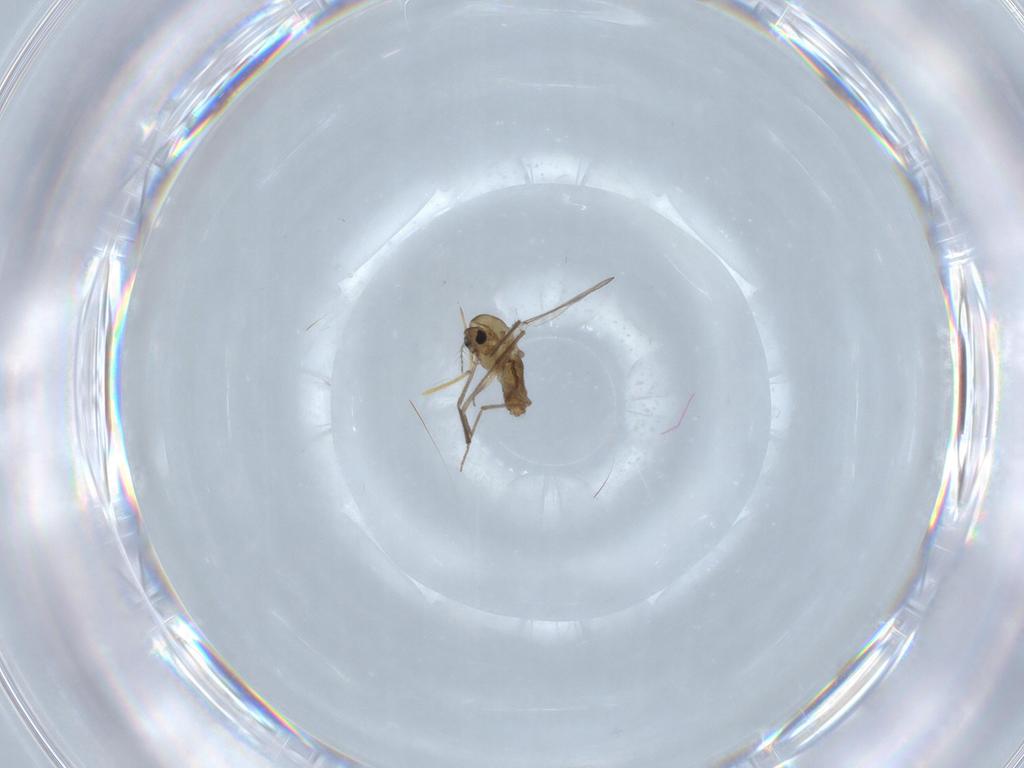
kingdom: Animalia
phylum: Arthropoda
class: Insecta
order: Diptera
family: Chironomidae
